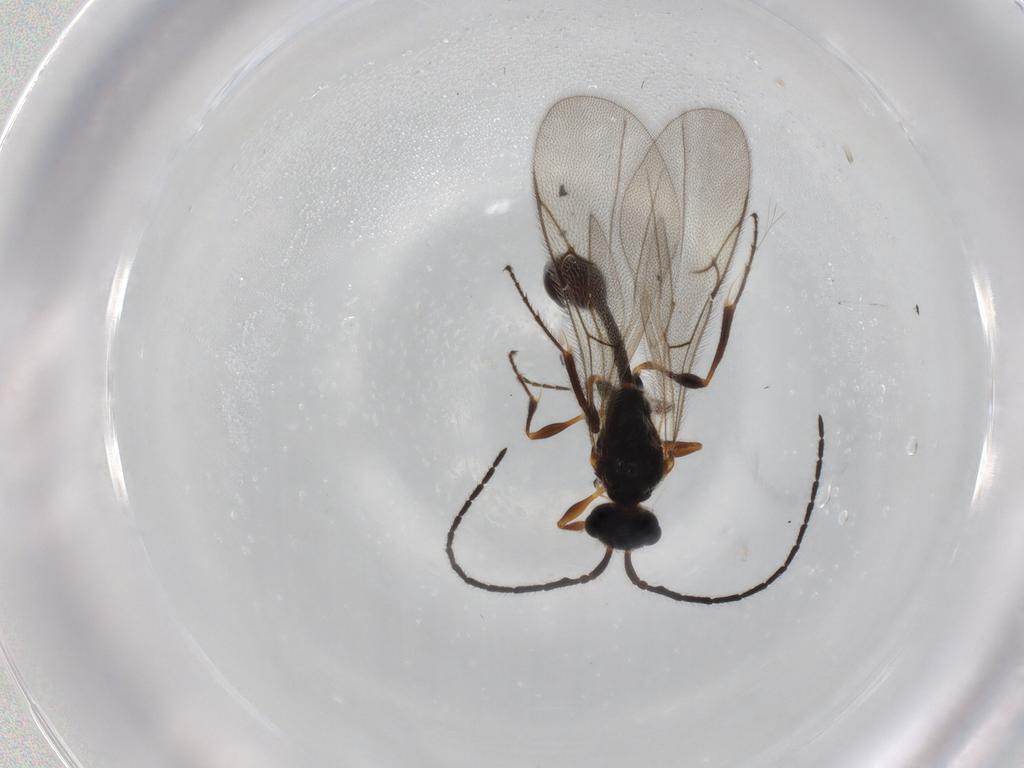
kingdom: Animalia
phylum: Arthropoda
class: Insecta
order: Hymenoptera
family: Diapriidae
